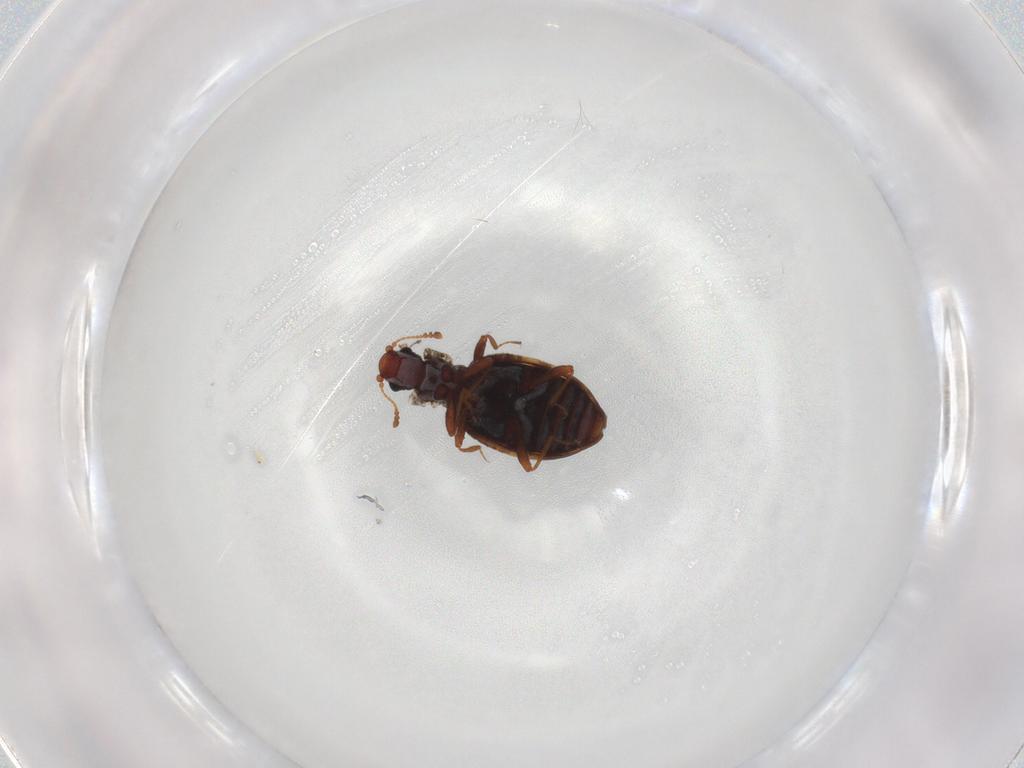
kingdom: Animalia
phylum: Arthropoda
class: Insecta
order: Coleoptera
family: Latridiidae
